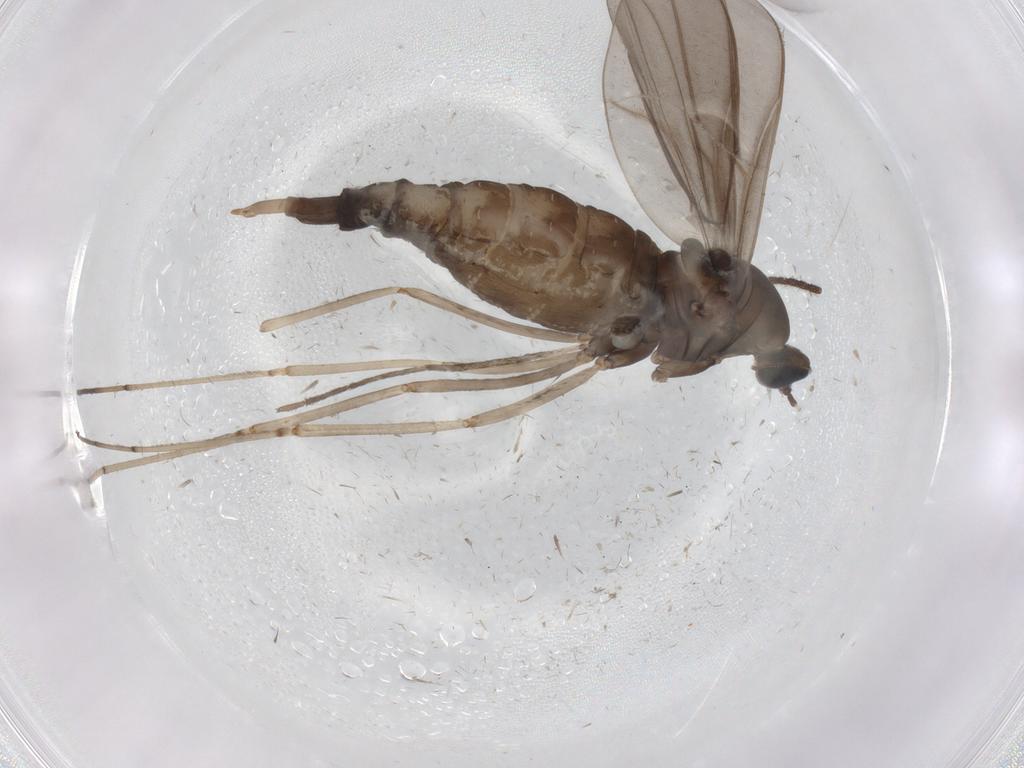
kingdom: Animalia
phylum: Arthropoda
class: Insecta
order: Diptera
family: Cecidomyiidae
